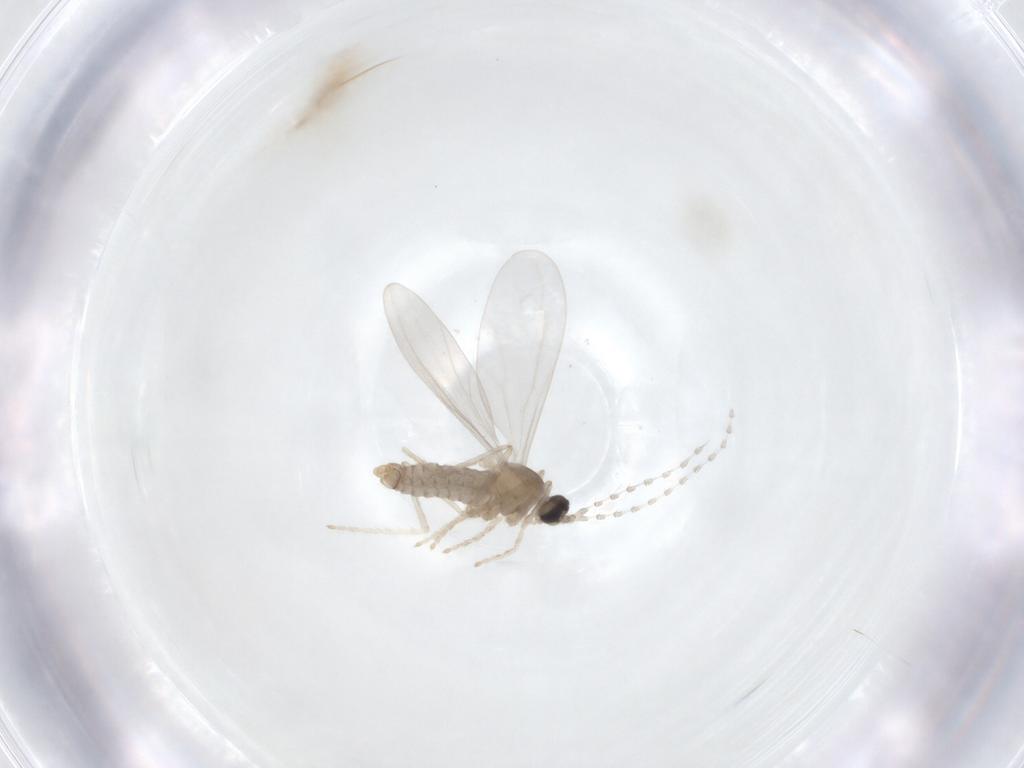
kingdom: Animalia
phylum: Arthropoda
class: Insecta
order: Diptera
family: Cecidomyiidae
